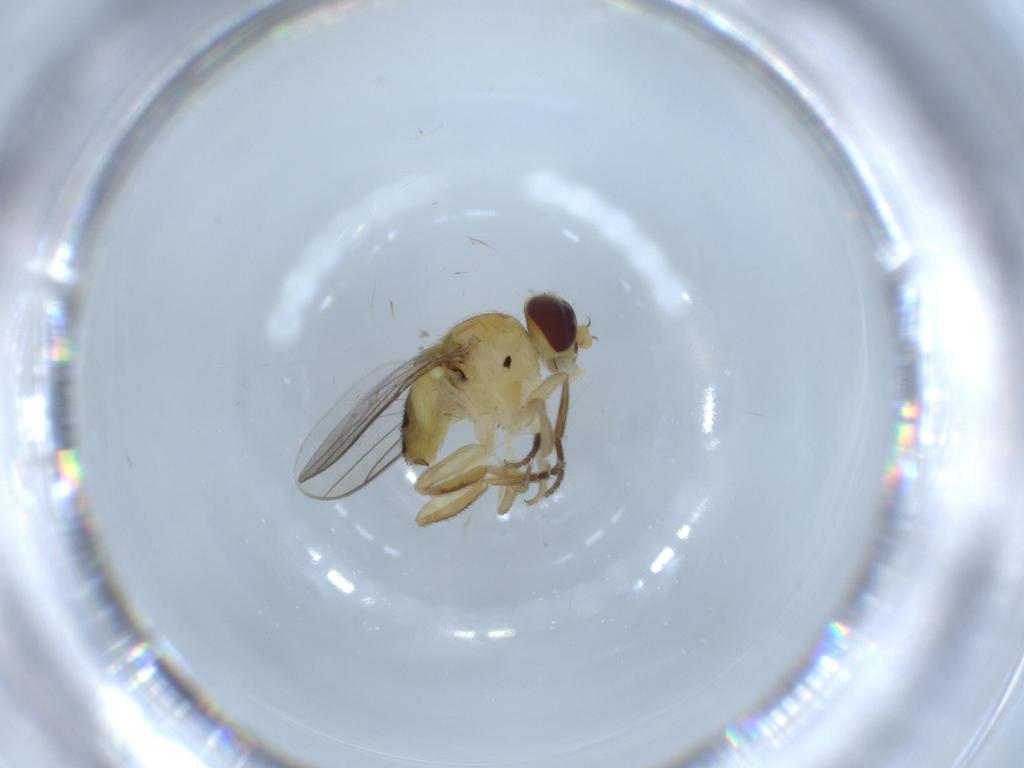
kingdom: Animalia
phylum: Arthropoda
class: Insecta
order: Diptera
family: Chloropidae
